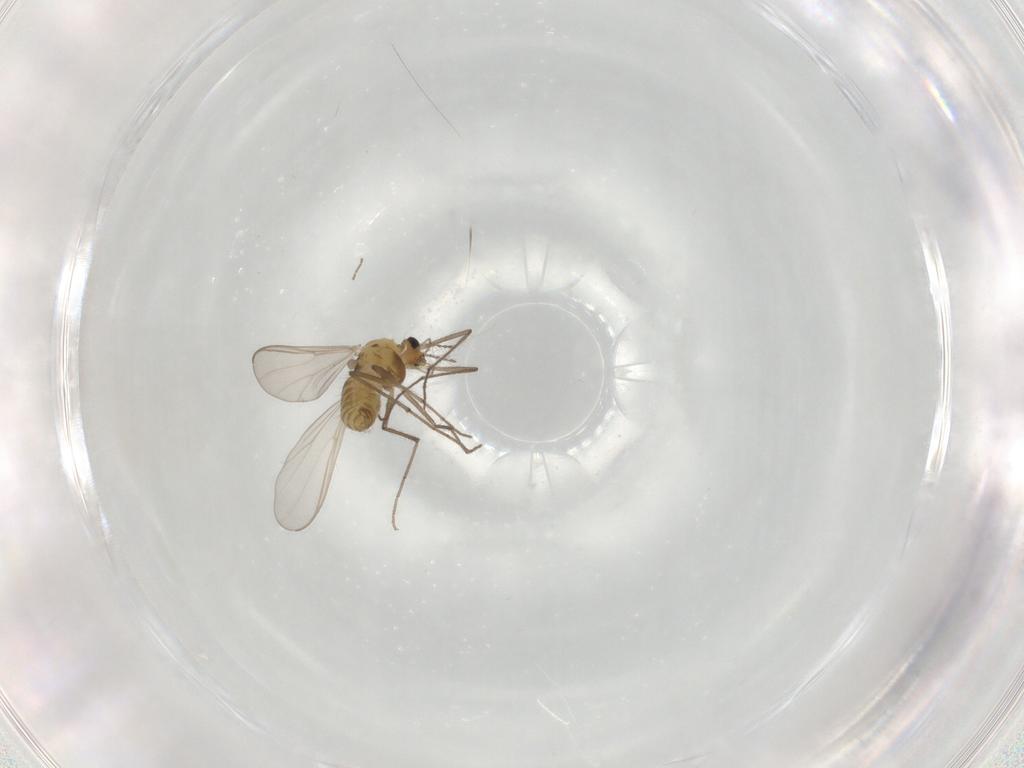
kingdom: Animalia
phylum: Arthropoda
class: Insecta
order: Diptera
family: Chironomidae
